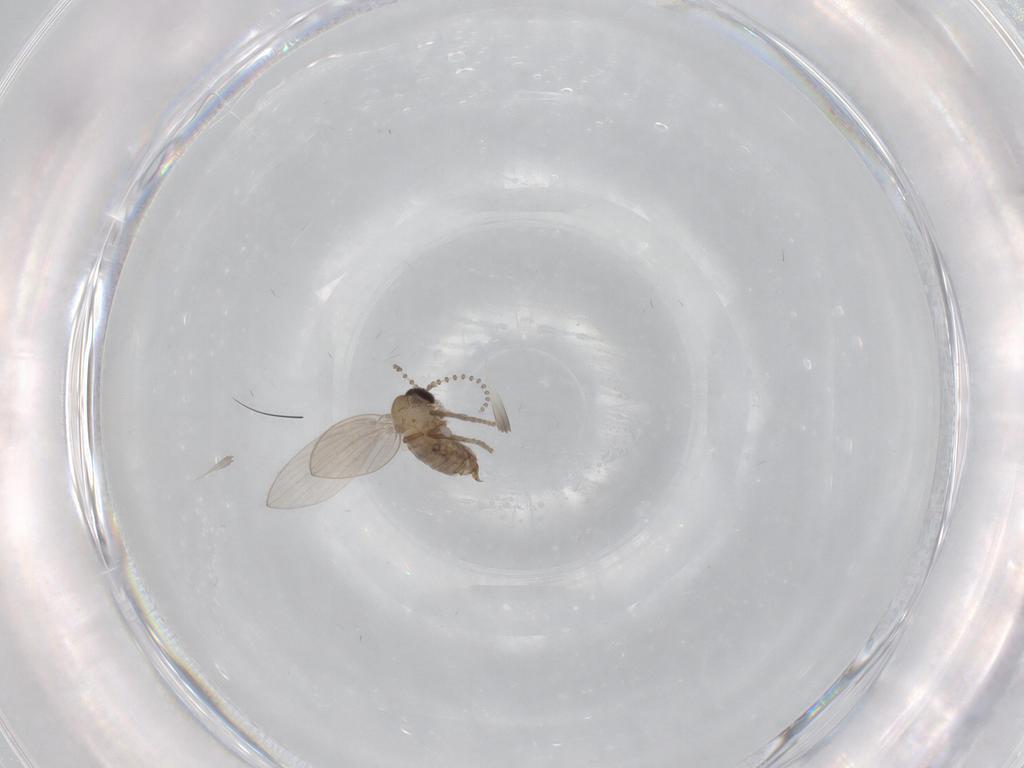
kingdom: Animalia
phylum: Arthropoda
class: Insecta
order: Diptera
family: Psychodidae
